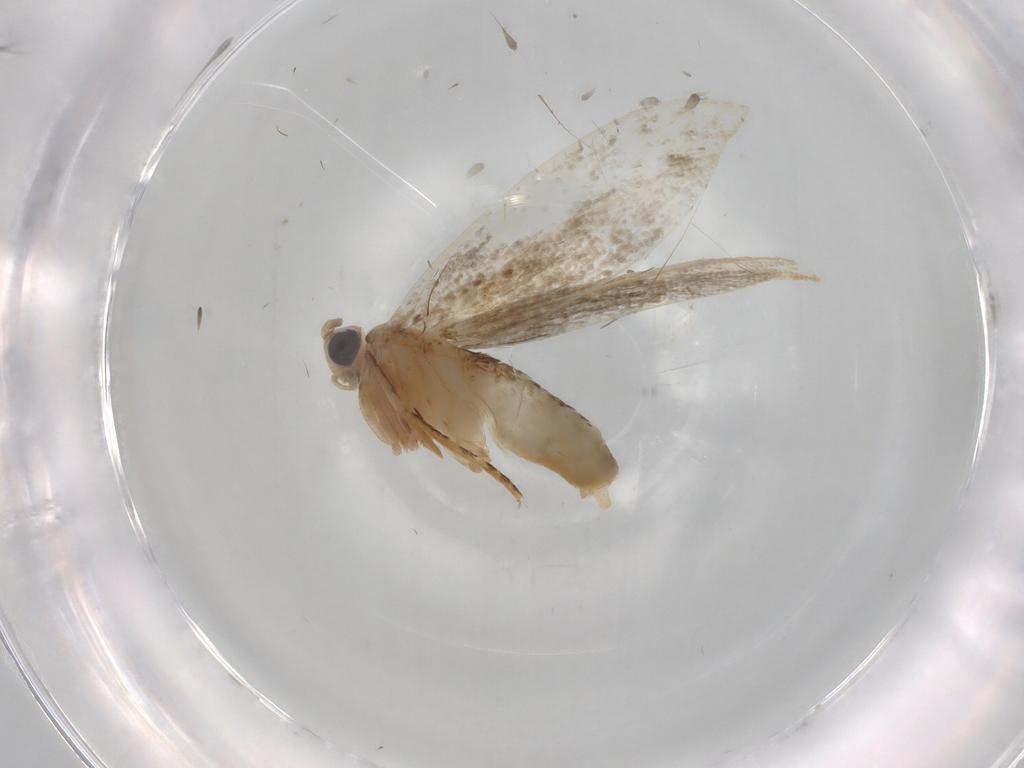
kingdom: Animalia
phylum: Arthropoda
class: Insecta
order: Lepidoptera
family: Tineidae
